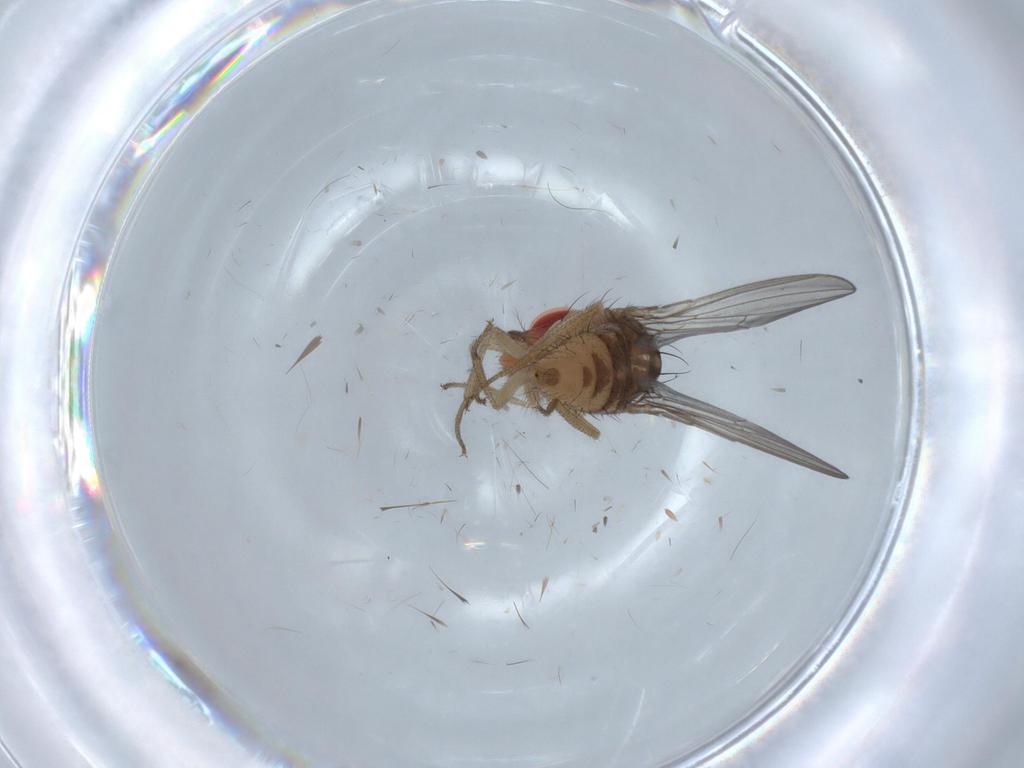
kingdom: Animalia
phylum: Arthropoda
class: Insecta
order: Diptera
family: Drosophilidae
